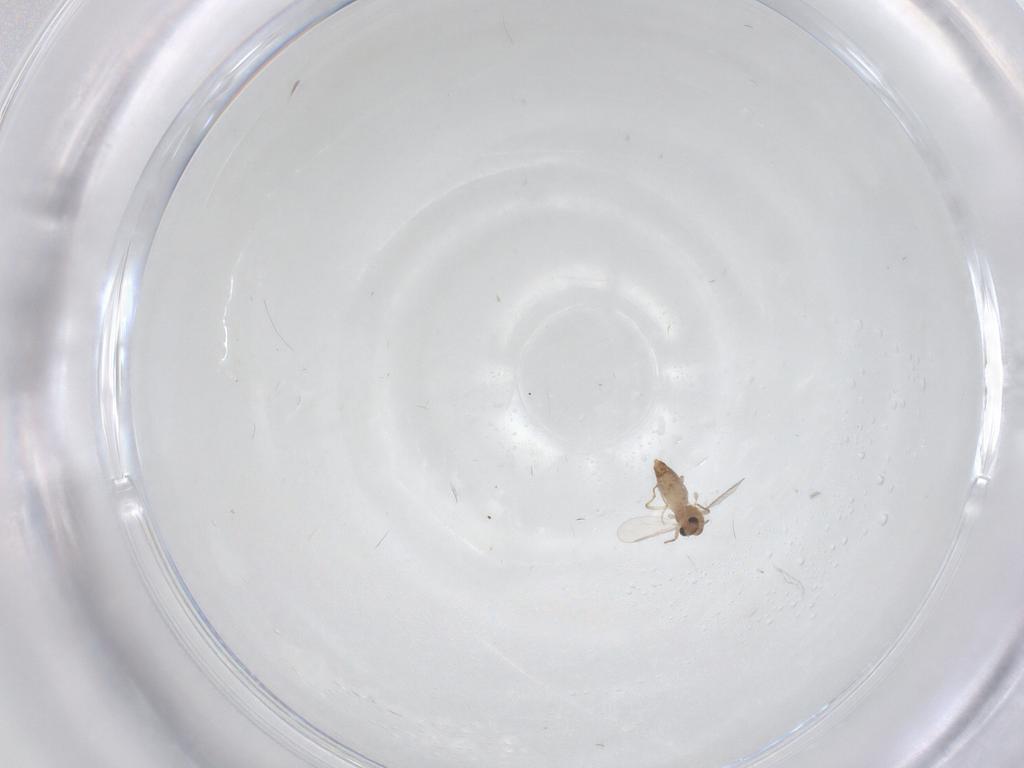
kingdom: Animalia
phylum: Arthropoda
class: Insecta
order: Diptera
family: Chironomidae
